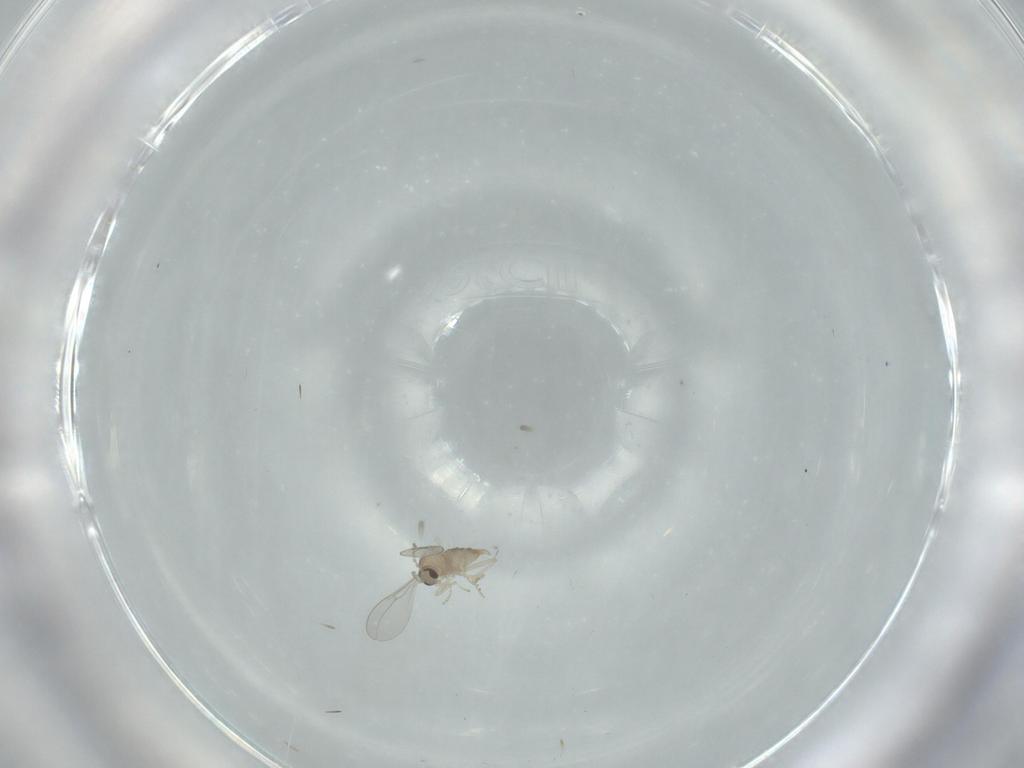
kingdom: Animalia
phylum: Arthropoda
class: Insecta
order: Diptera
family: Cecidomyiidae
